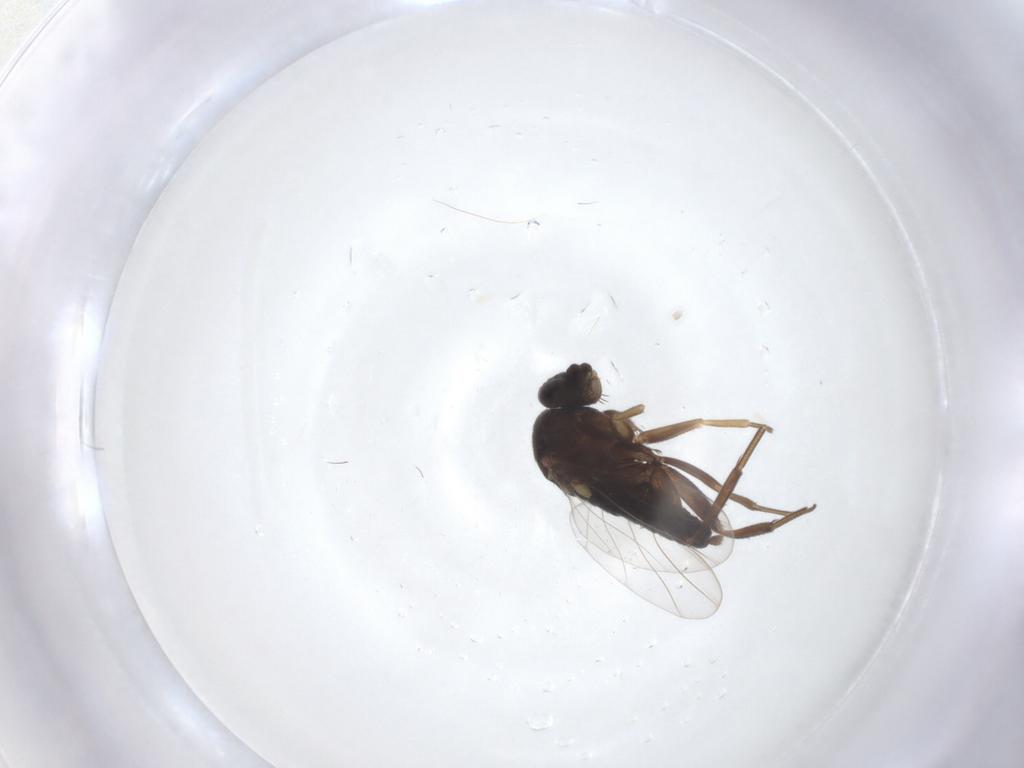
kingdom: Animalia
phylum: Arthropoda
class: Insecta
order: Diptera
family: Phoridae
